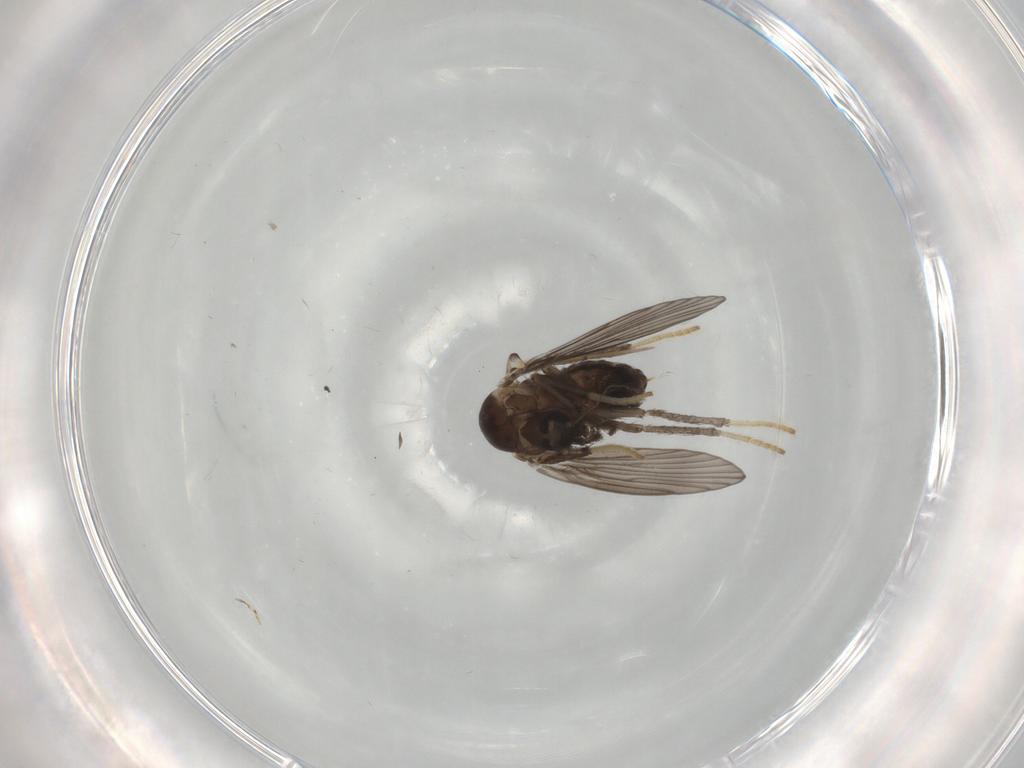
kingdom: Animalia
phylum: Arthropoda
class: Insecta
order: Diptera
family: Psychodidae
